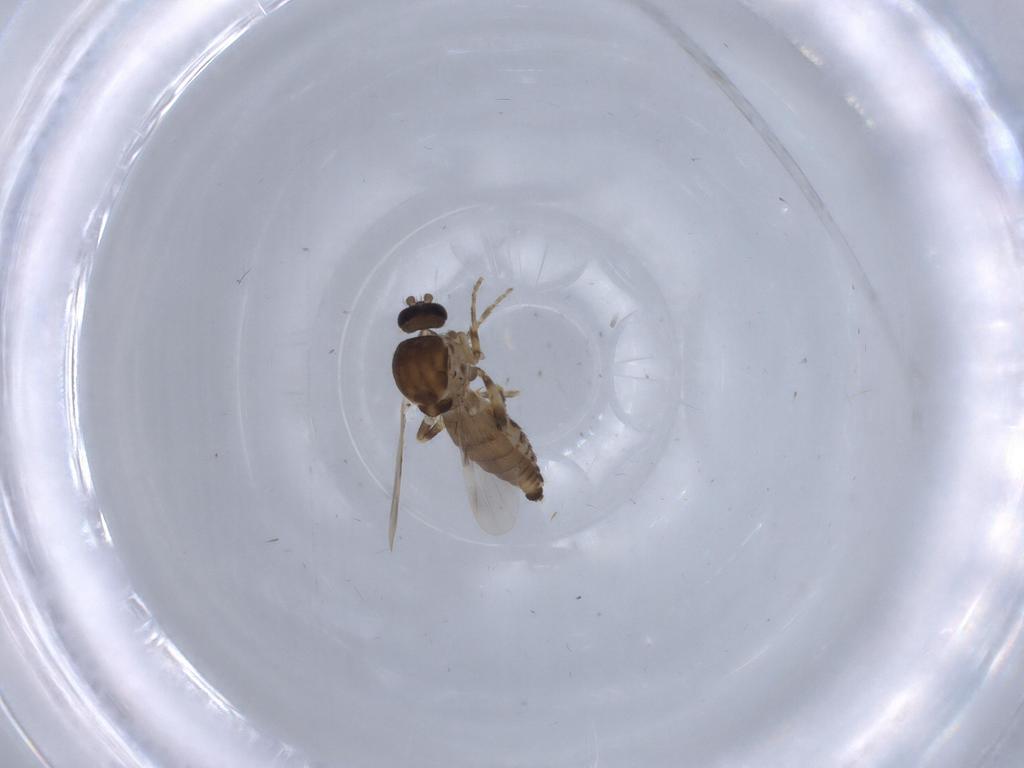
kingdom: Animalia
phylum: Arthropoda
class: Insecta
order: Diptera
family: Ceratopogonidae
